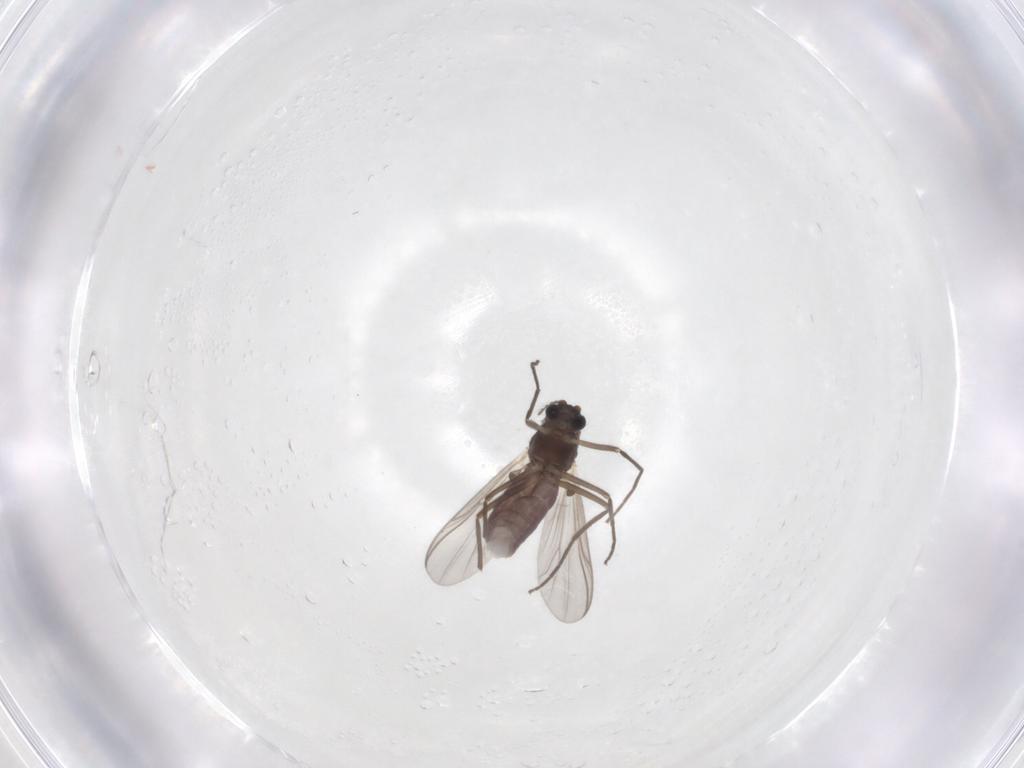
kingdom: Animalia
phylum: Arthropoda
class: Insecta
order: Diptera
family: Chironomidae
